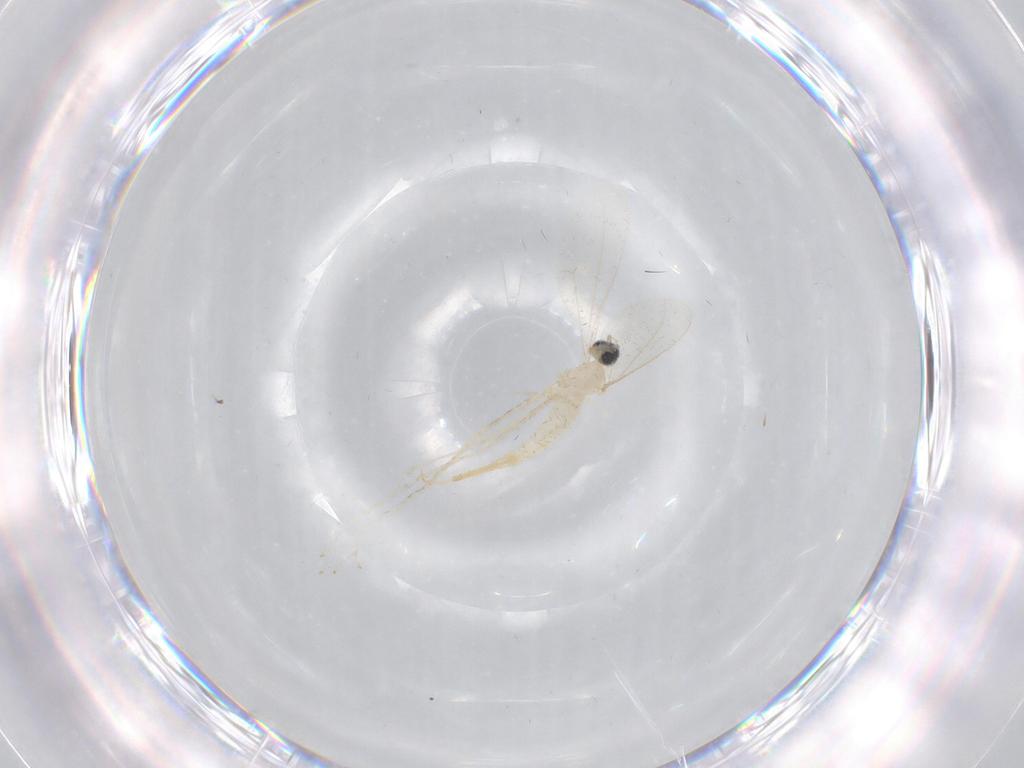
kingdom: Animalia
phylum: Arthropoda
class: Insecta
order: Diptera
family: Cecidomyiidae
